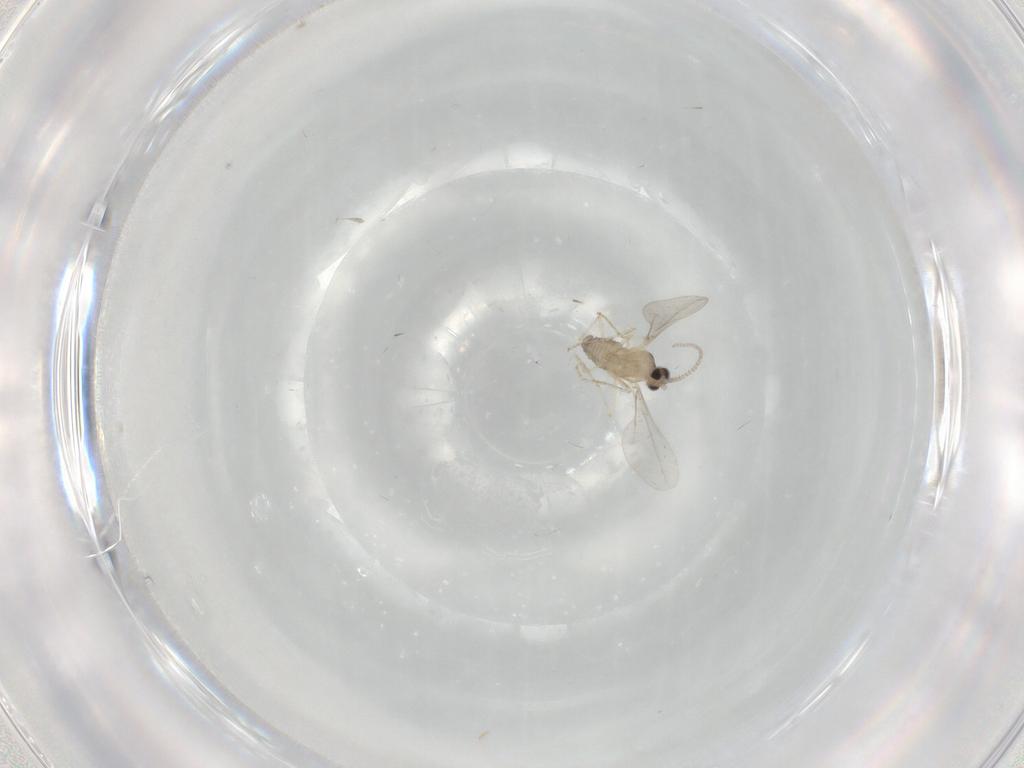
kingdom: Animalia
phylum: Arthropoda
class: Insecta
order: Diptera
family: Cecidomyiidae
